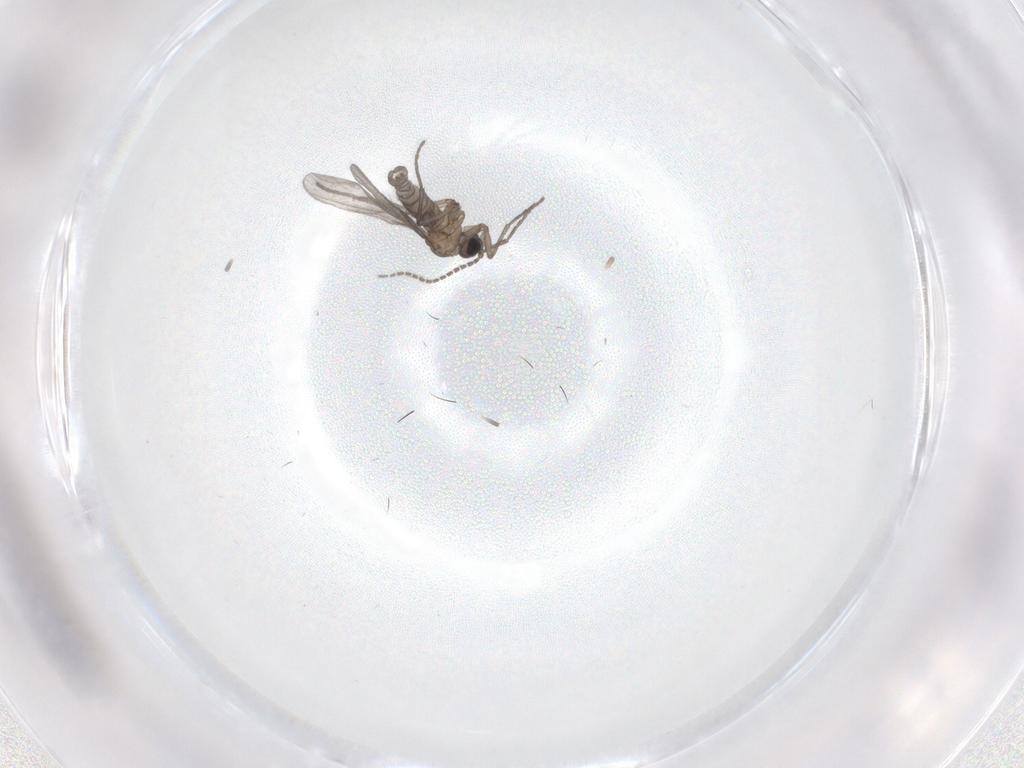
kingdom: Animalia
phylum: Arthropoda
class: Insecta
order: Diptera
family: Sciaridae
